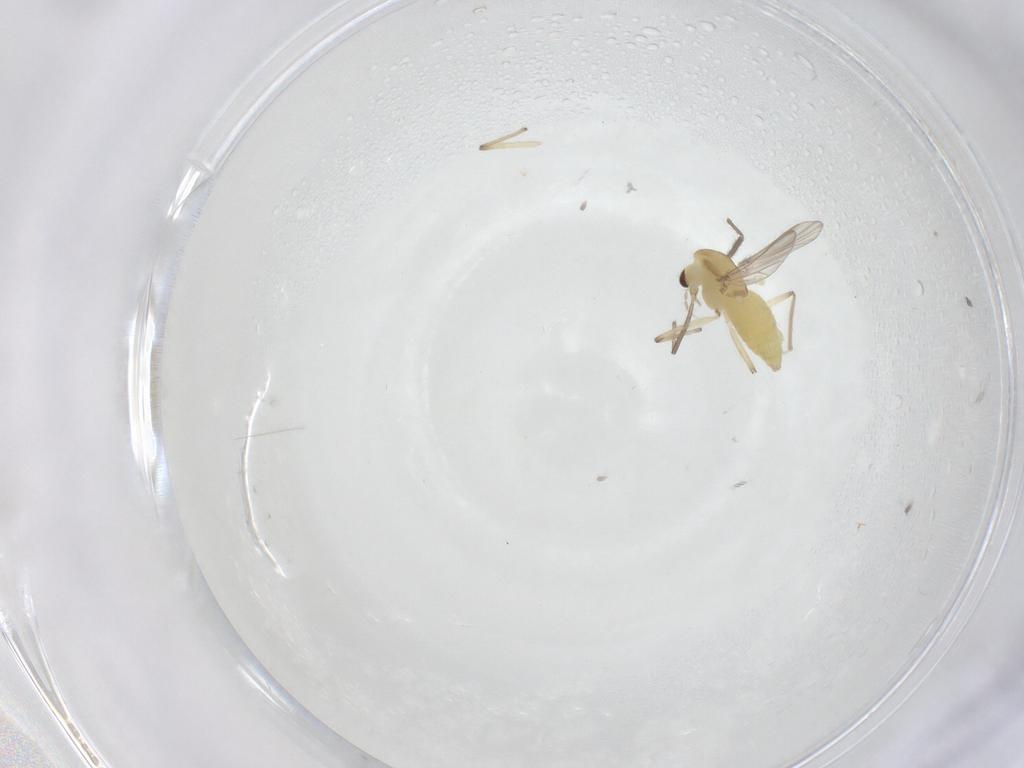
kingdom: Animalia
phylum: Arthropoda
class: Insecta
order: Diptera
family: Chironomidae
